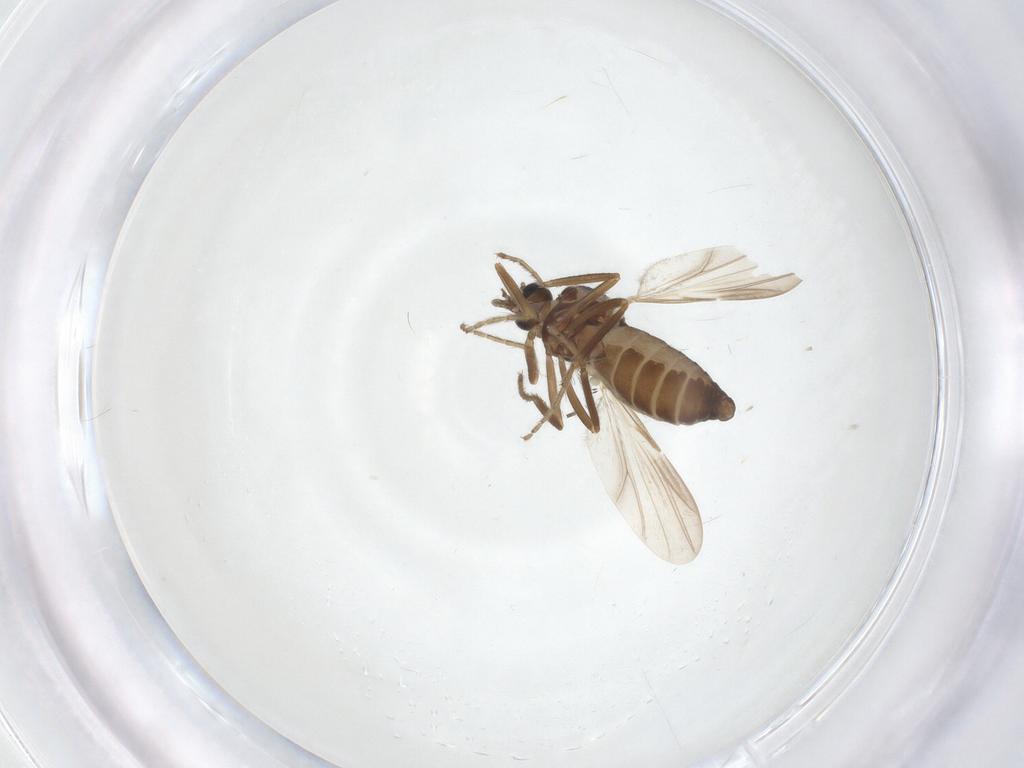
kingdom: Animalia
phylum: Arthropoda
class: Insecta
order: Diptera
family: Ceratopogonidae
